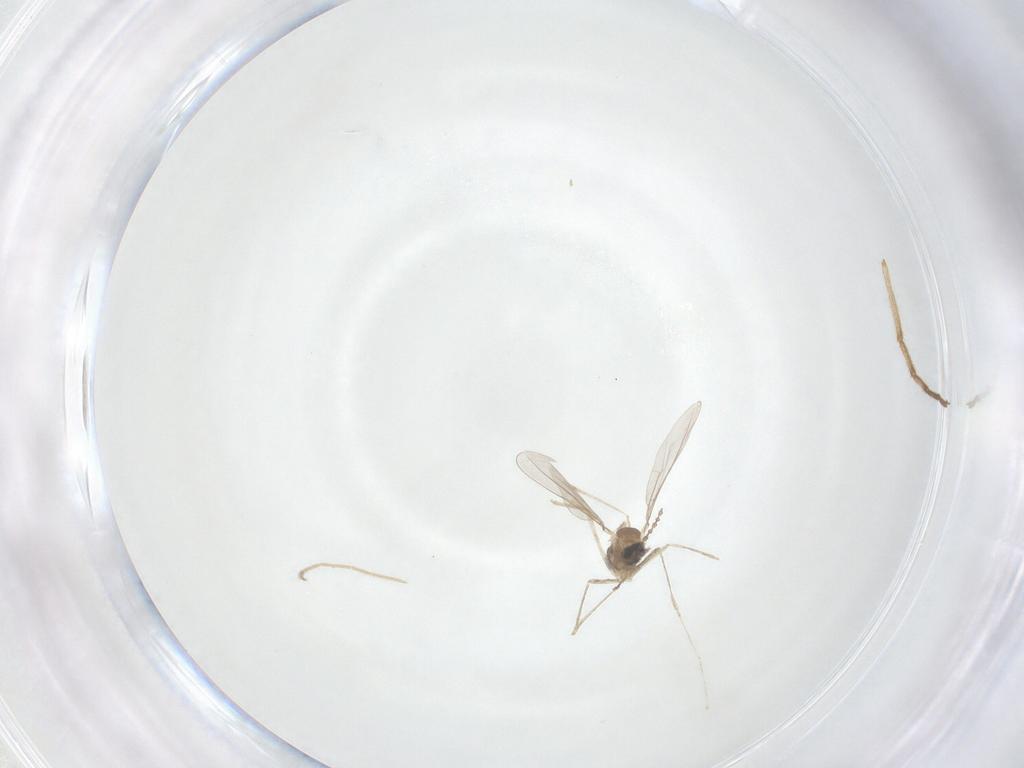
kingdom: Animalia
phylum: Arthropoda
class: Insecta
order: Diptera
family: Cecidomyiidae
